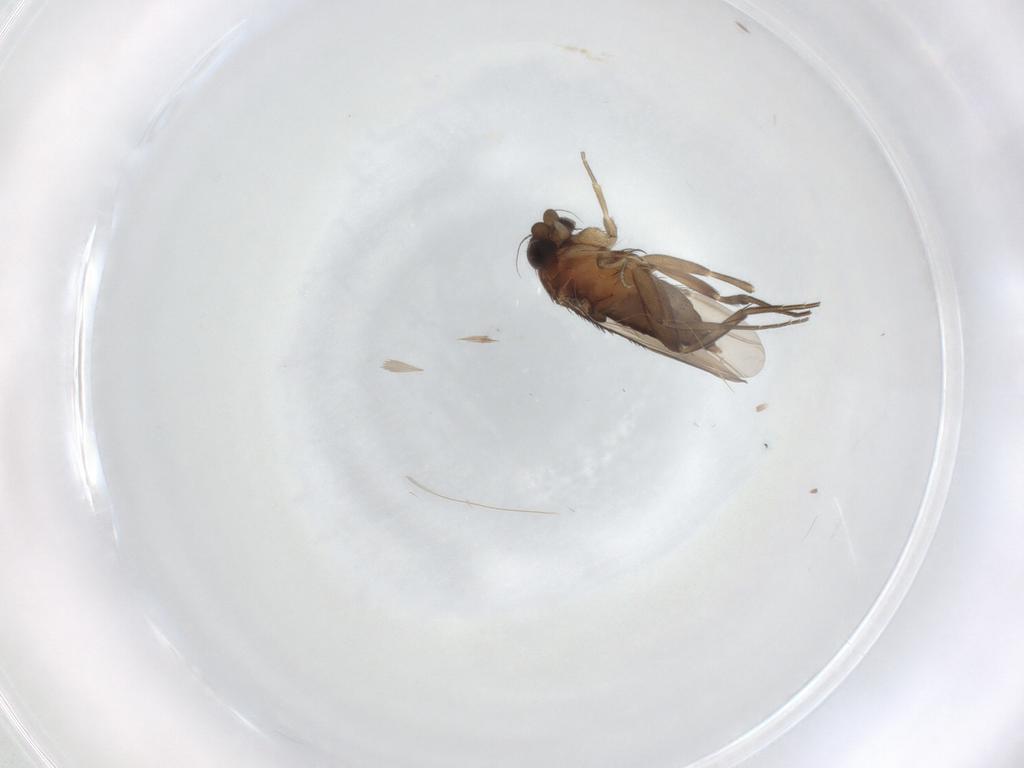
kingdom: Animalia
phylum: Arthropoda
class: Insecta
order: Diptera
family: Phoridae
